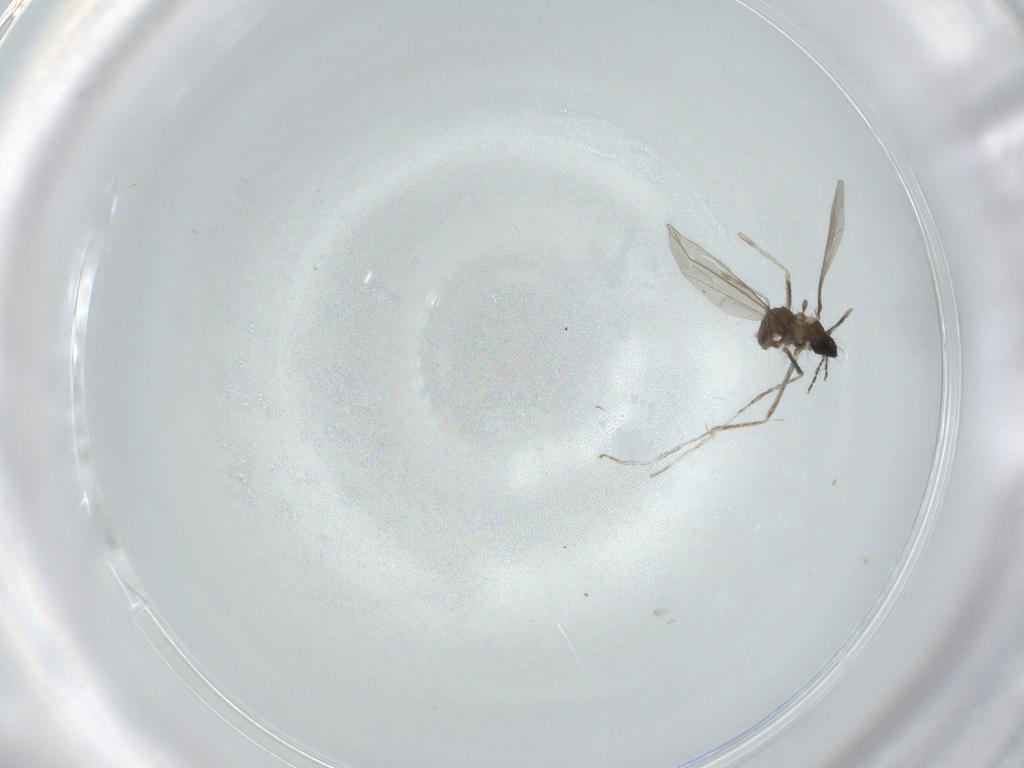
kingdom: Animalia
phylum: Arthropoda
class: Insecta
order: Diptera
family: Cecidomyiidae
